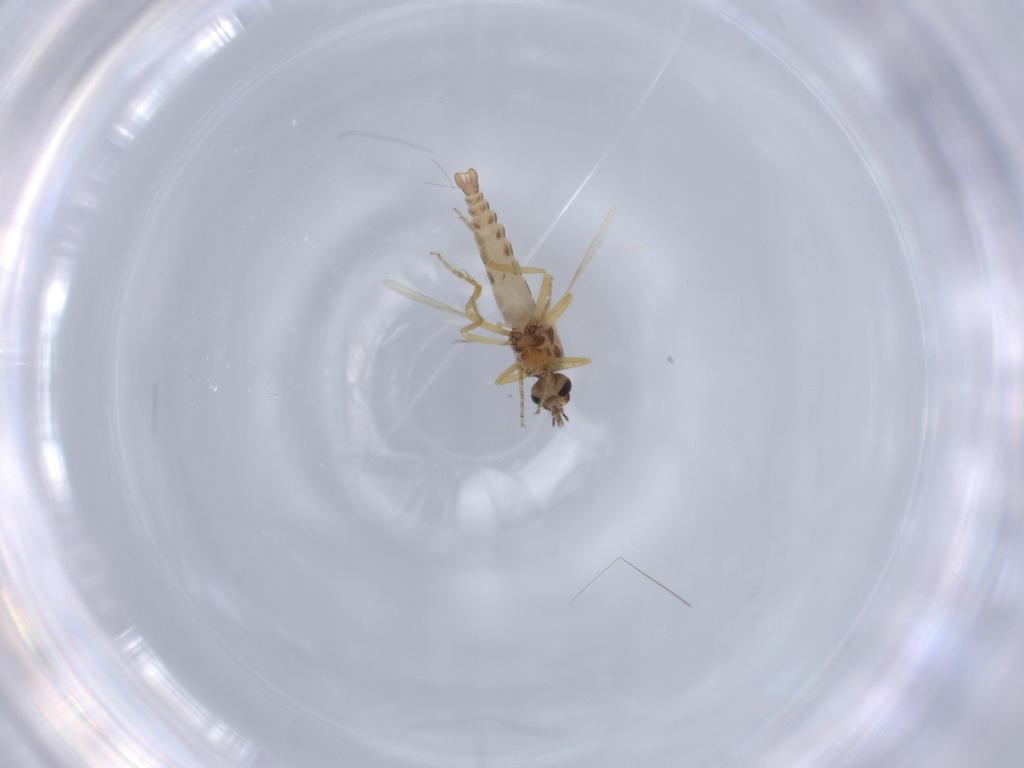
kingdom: Animalia
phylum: Arthropoda
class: Insecta
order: Diptera
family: Ceratopogonidae
